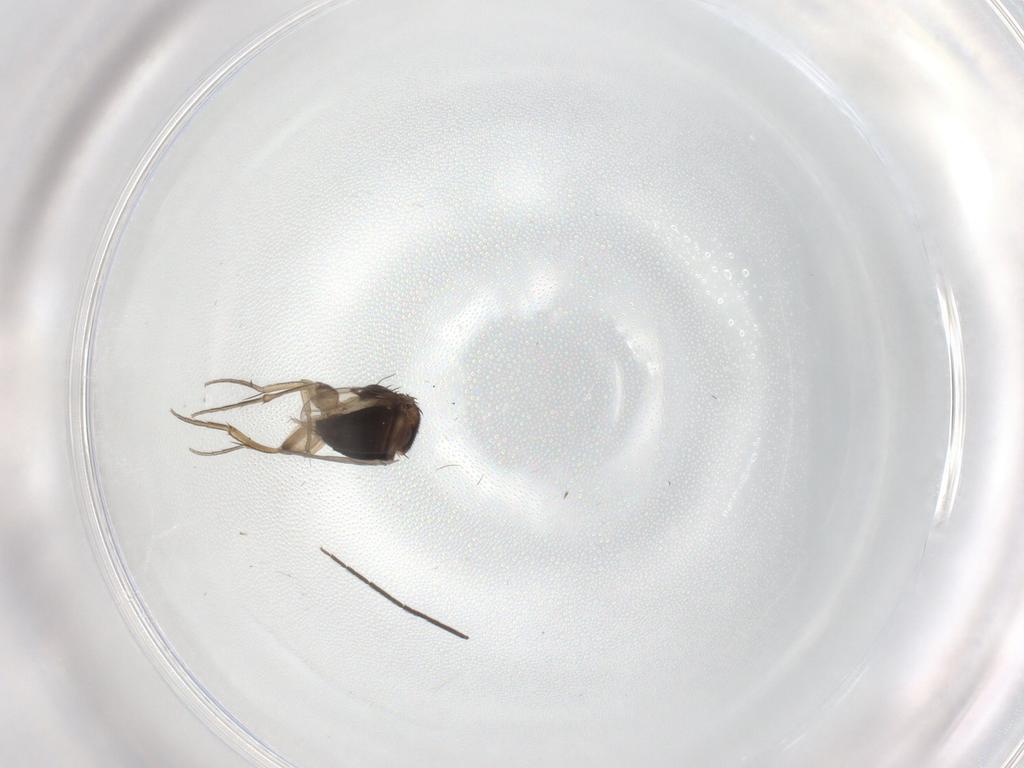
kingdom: Animalia
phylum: Arthropoda
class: Insecta
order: Diptera
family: Phoridae
